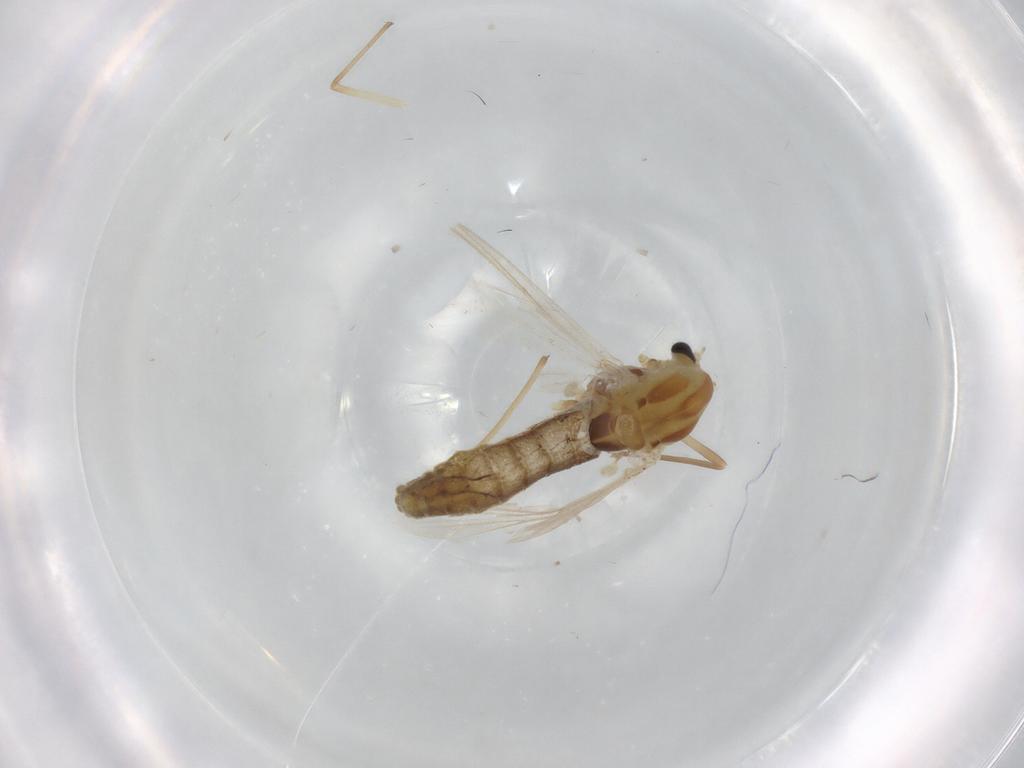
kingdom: Animalia
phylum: Arthropoda
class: Insecta
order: Diptera
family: Chironomidae
